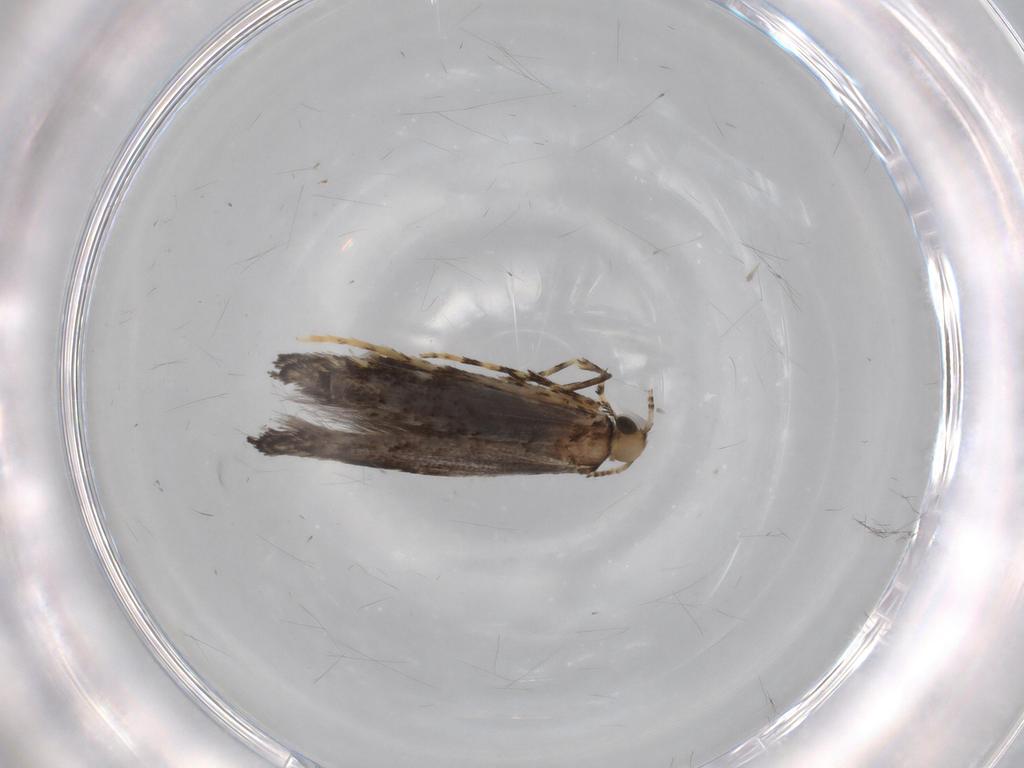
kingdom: Animalia
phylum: Arthropoda
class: Insecta
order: Lepidoptera
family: Gracillariidae
